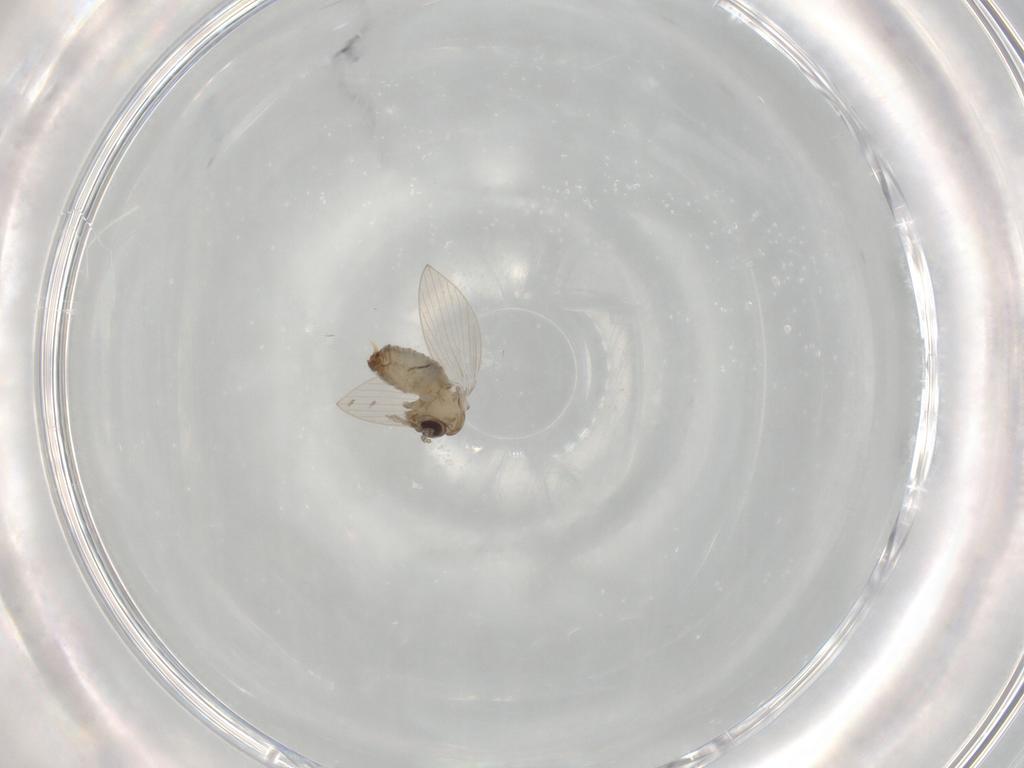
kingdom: Animalia
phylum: Arthropoda
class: Insecta
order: Diptera
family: Psychodidae
